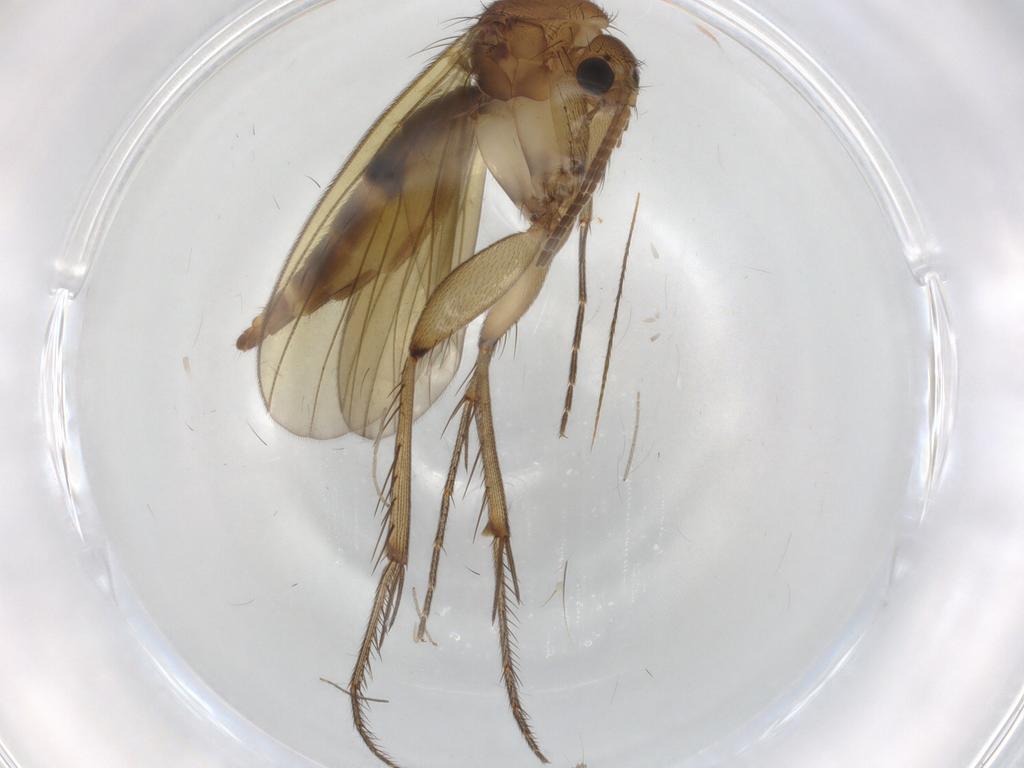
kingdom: Animalia
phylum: Arthropoda
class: Insecta
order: Diptera
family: Chironomidae
